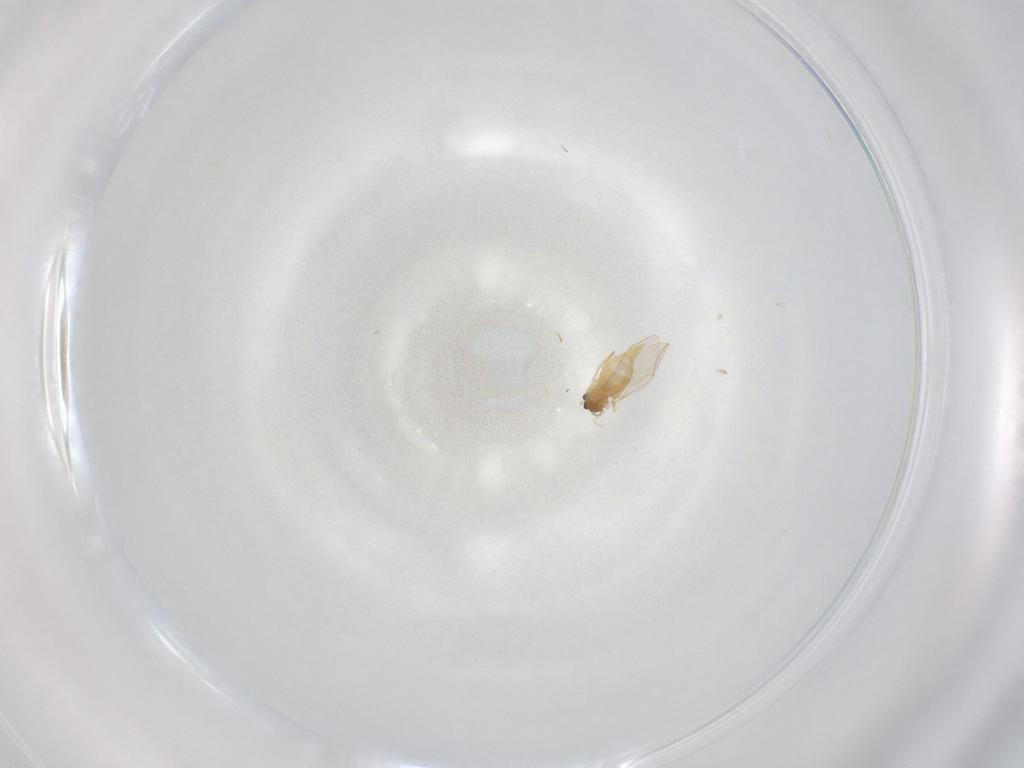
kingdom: Animalia
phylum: Arthropoda
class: Insecta
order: Diptera
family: Cecidomyiidae
